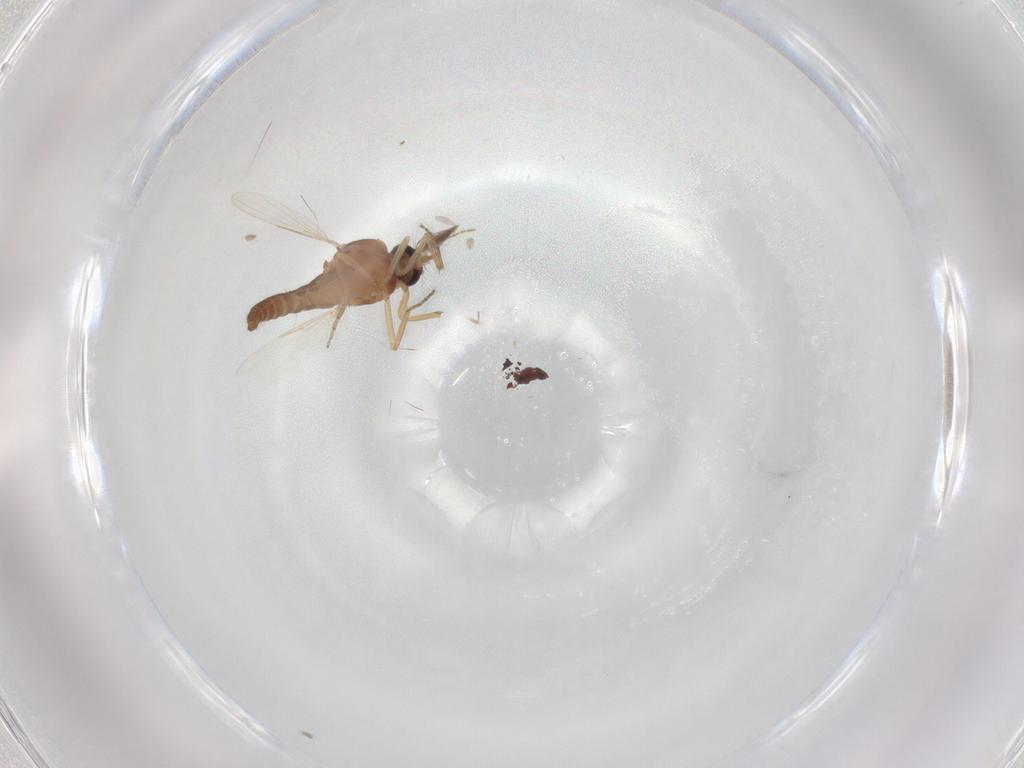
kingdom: Animalia
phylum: Arthropoda
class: Insecta
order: Diptera
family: Ceratopogonidae
